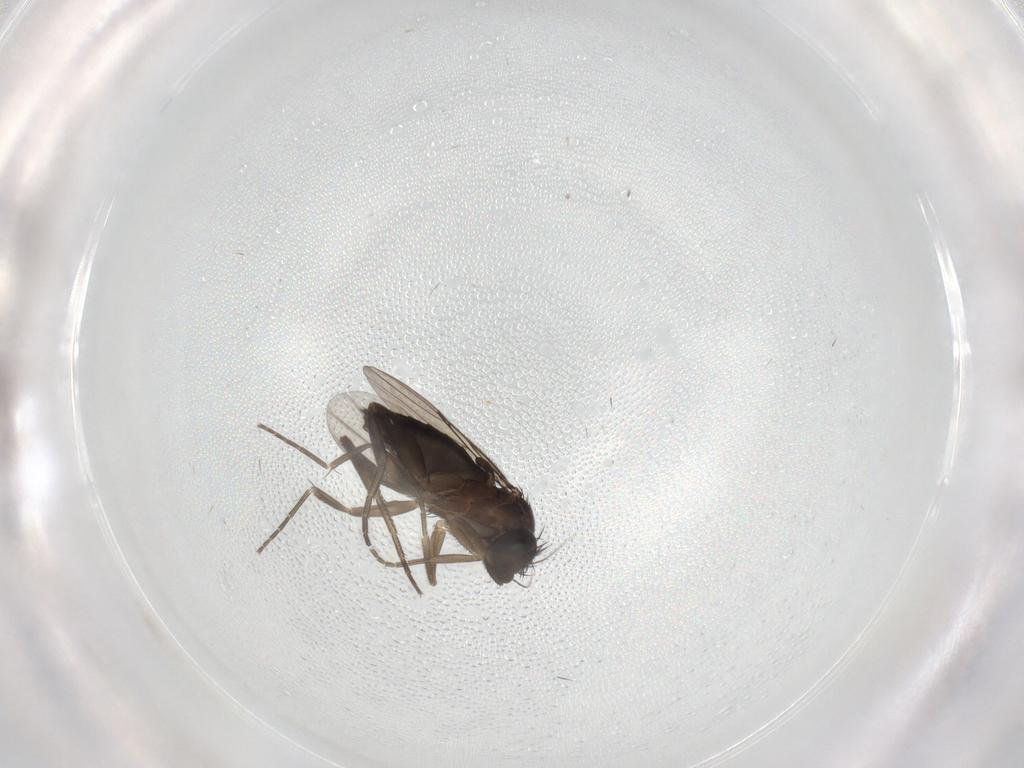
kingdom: Animalia
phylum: Arthropoda
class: Insecta
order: Diptera
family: Phoridae
